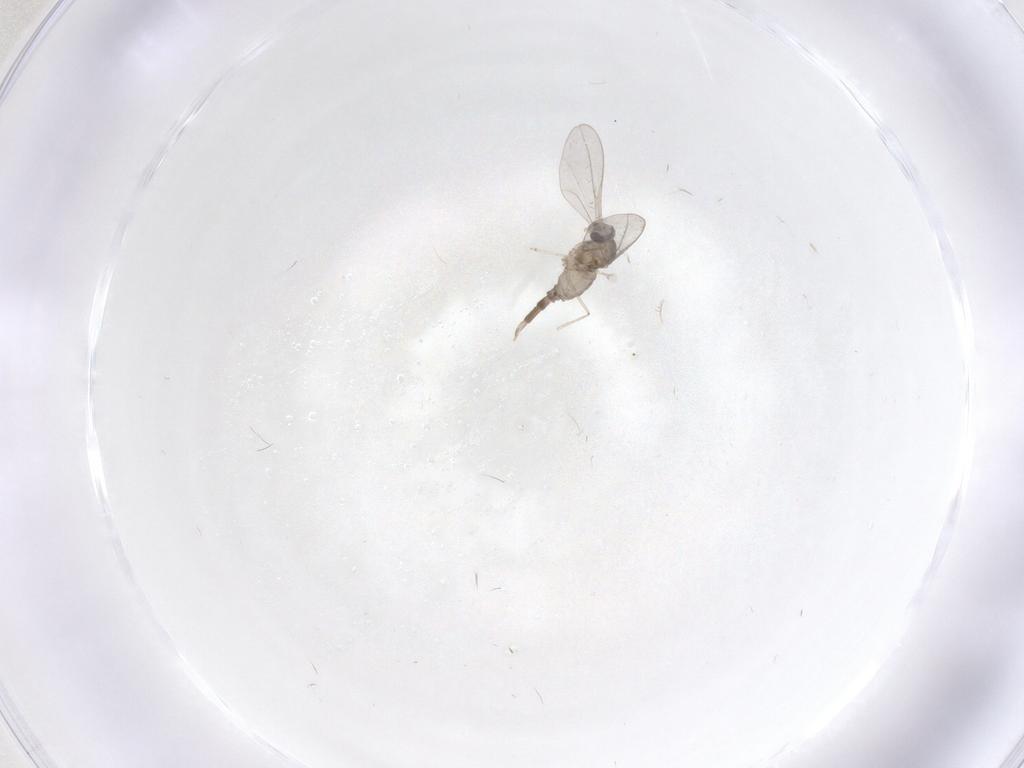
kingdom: Animalia
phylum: Arthropoda
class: Insecta
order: Diptera
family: Cecidomyiidae
